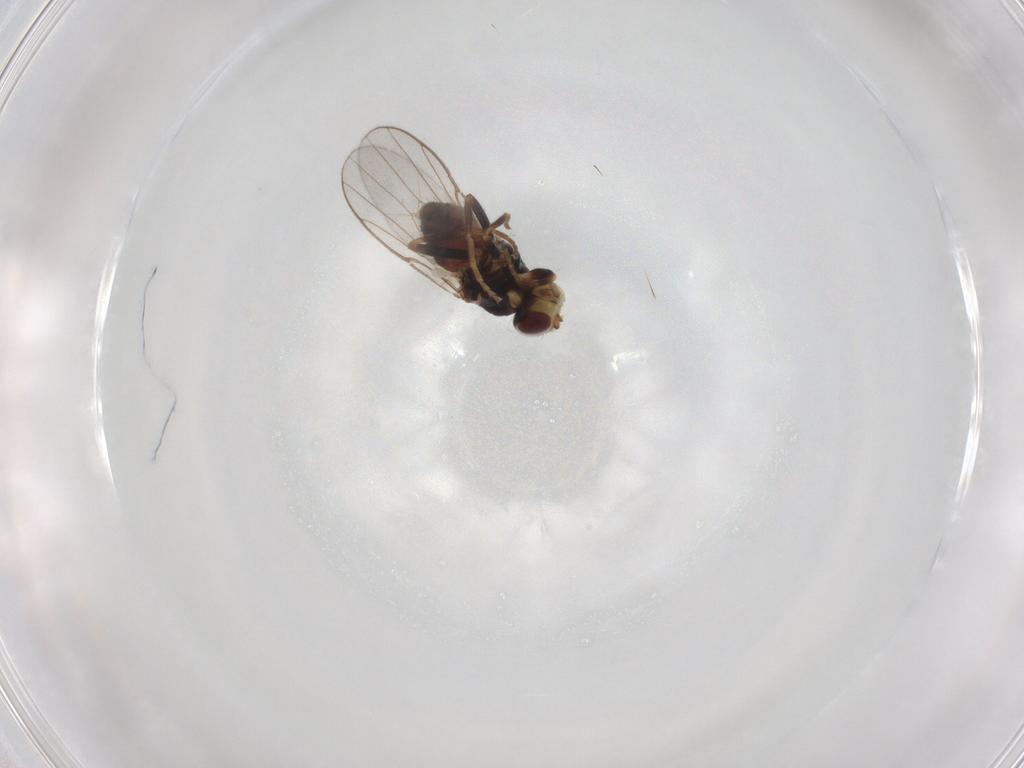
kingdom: Animalia
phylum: Arthropoda
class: Insecta
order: Diptera
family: Chloropidae
